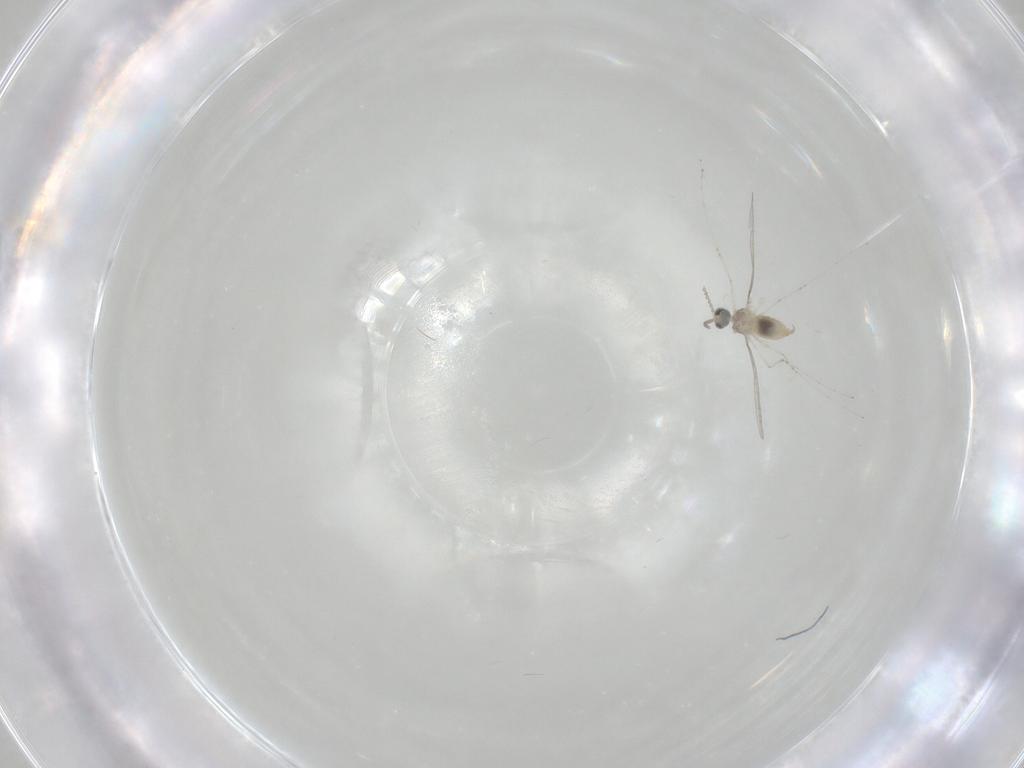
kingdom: Animalia
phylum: Arthropoda
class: Insecta
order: Diptera
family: Cecidomyiidae
